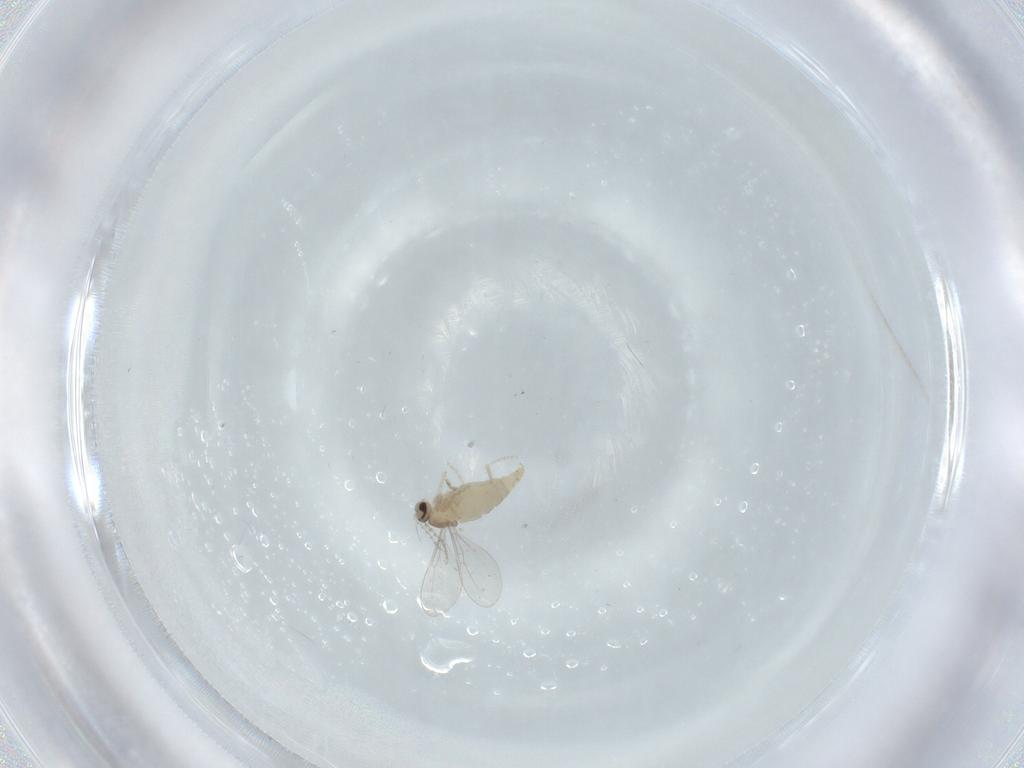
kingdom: Animalia
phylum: Arthropoda
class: Insecta
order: Diptera
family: Cecidomyiidae
